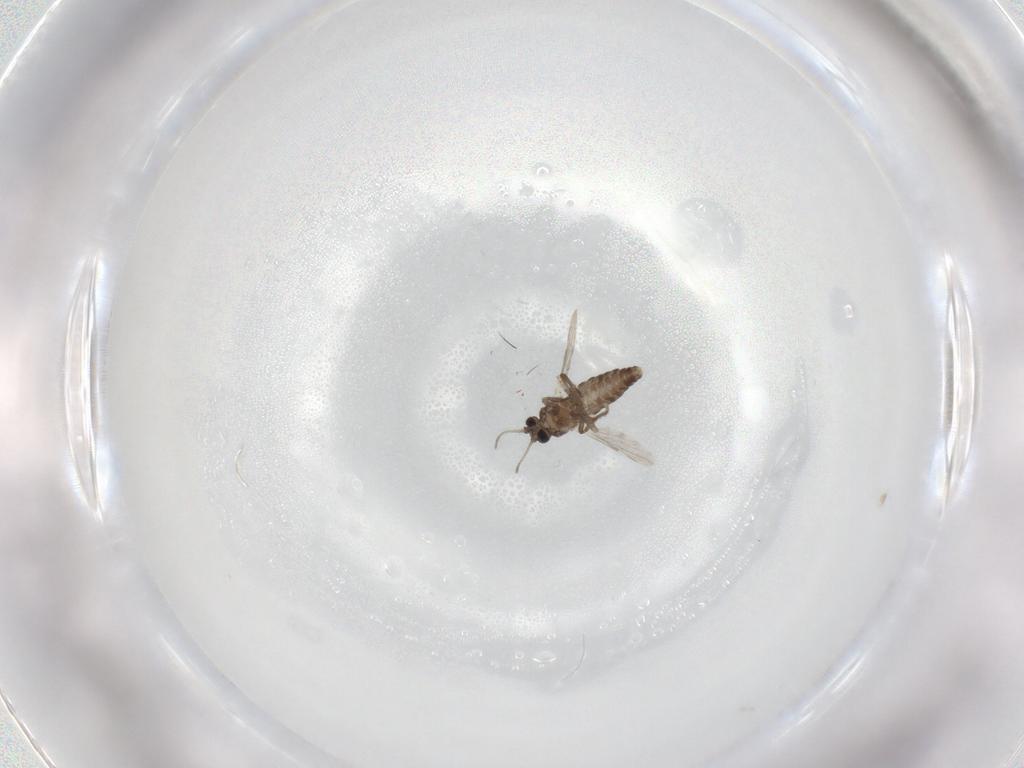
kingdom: Animalia
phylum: Arthropoda
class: Insecta
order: Diptera
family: Ceratopogonidae
